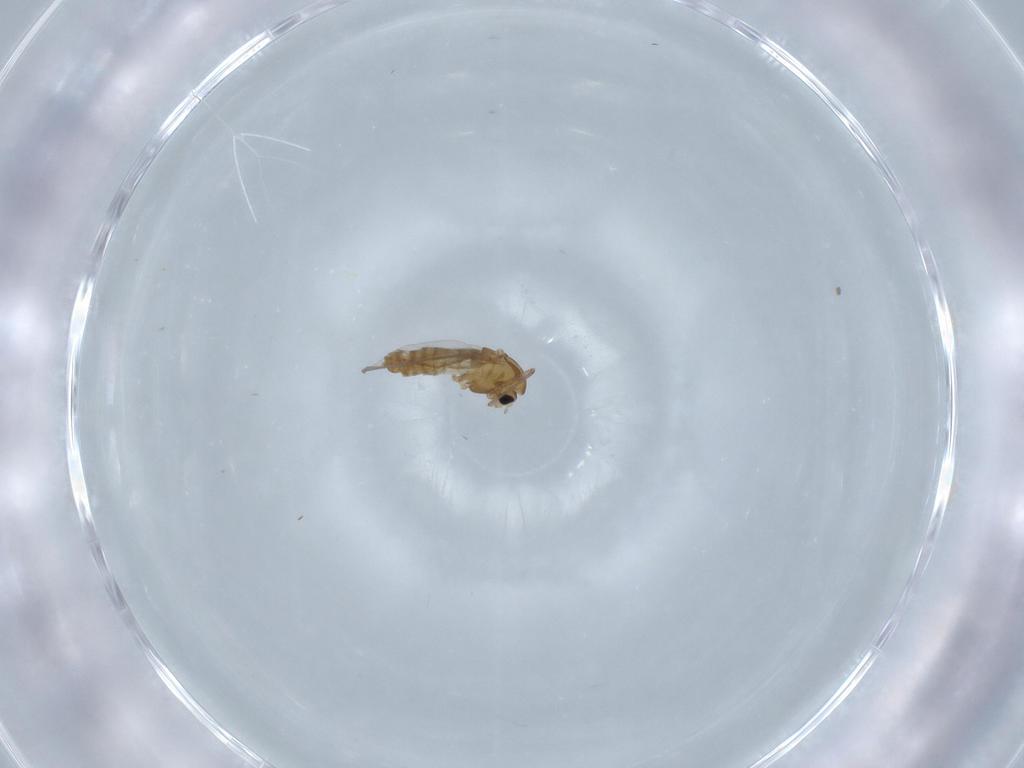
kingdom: Animalia
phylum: Arthropoda
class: Insecta
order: Diptera
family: Chironomidae
